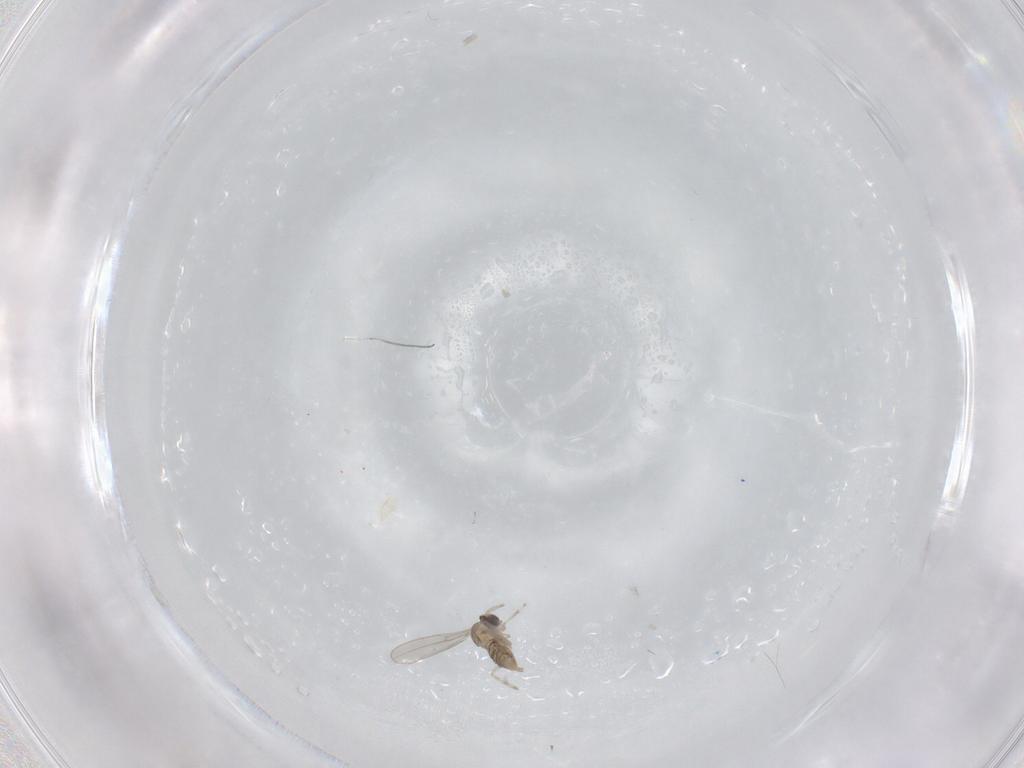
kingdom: Animalia
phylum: Arthropoda
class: Insecta
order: Diptera
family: Cecidomyiidae
